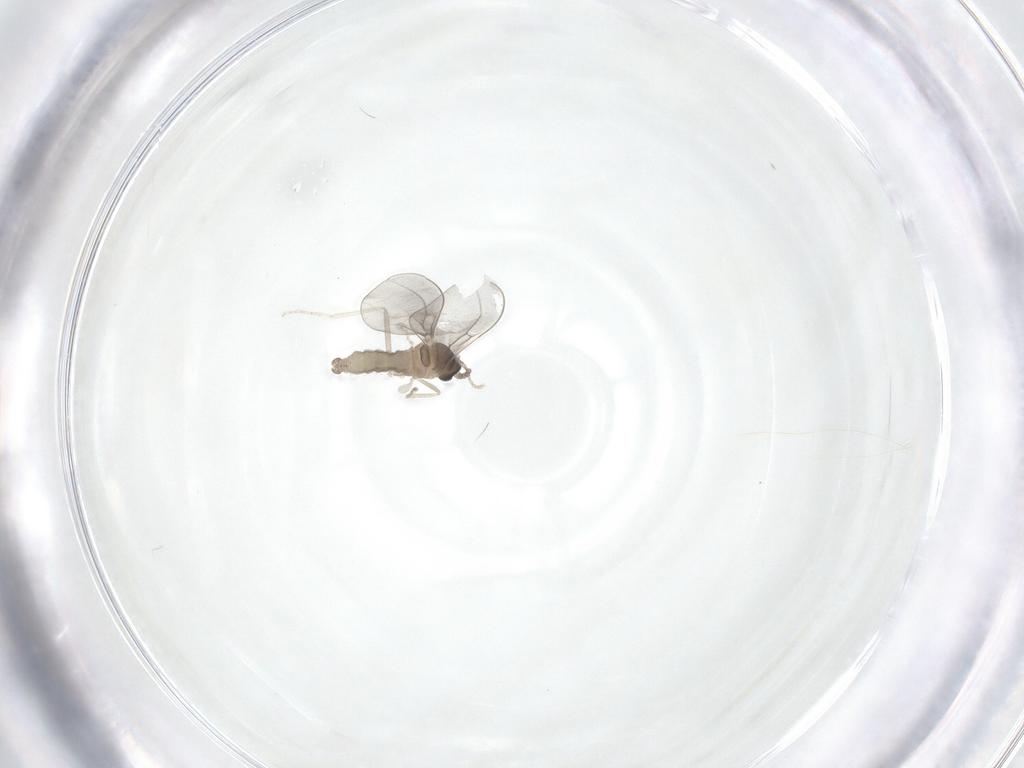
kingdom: Animalia
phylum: Arthropoda
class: Insecta
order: Diptera
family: Cecidomyiidae
